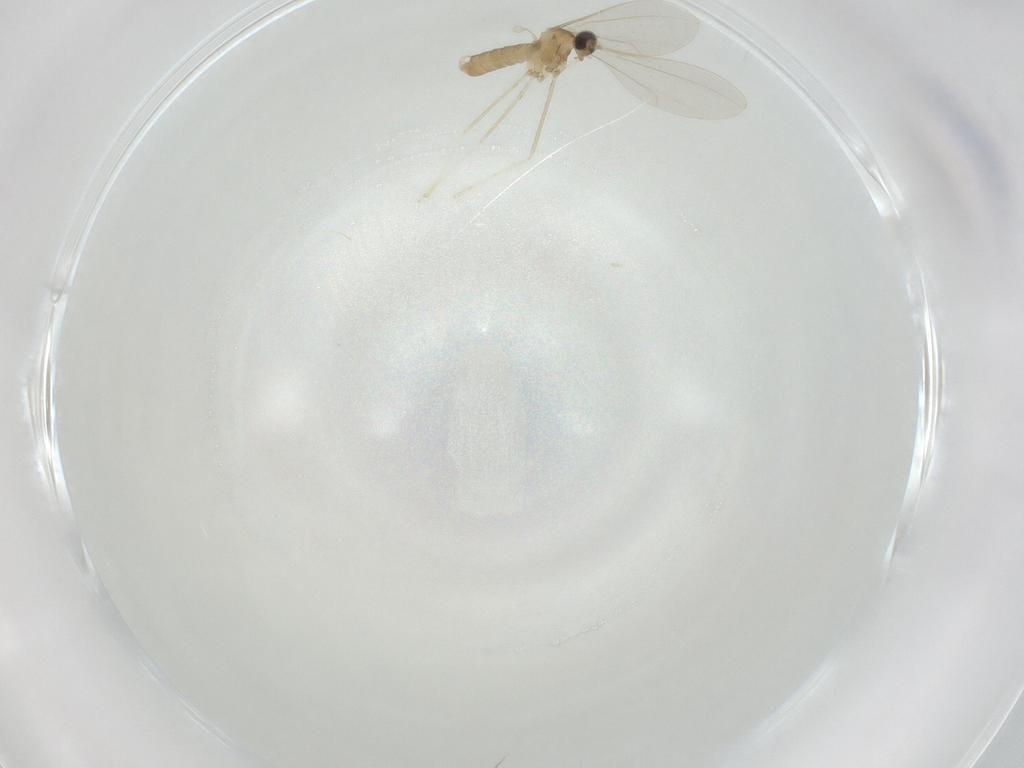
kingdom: Animalia
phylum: Arthropoda
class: Insecta
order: Diptera
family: Cecidomyiidae
